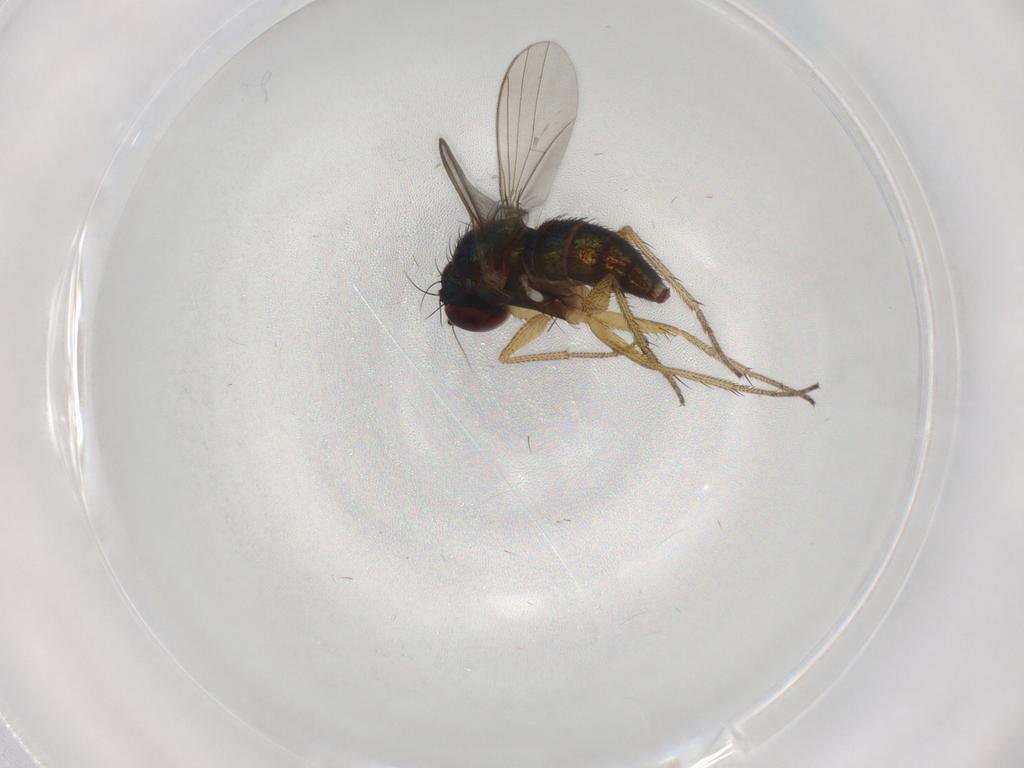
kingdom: Animalia
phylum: Arthropoda
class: Insecta
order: Diptera
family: Dolichopodidae
